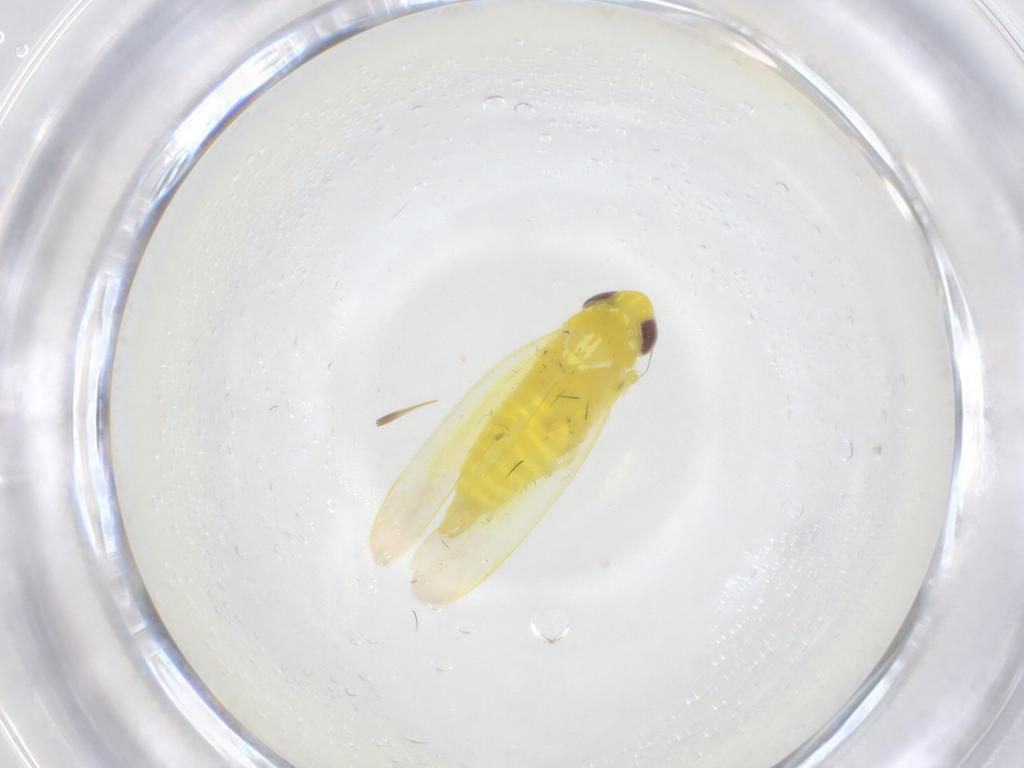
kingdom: Animalia
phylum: Arthropoda
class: Insecta
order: Hemiptera
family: Cicadellidae
